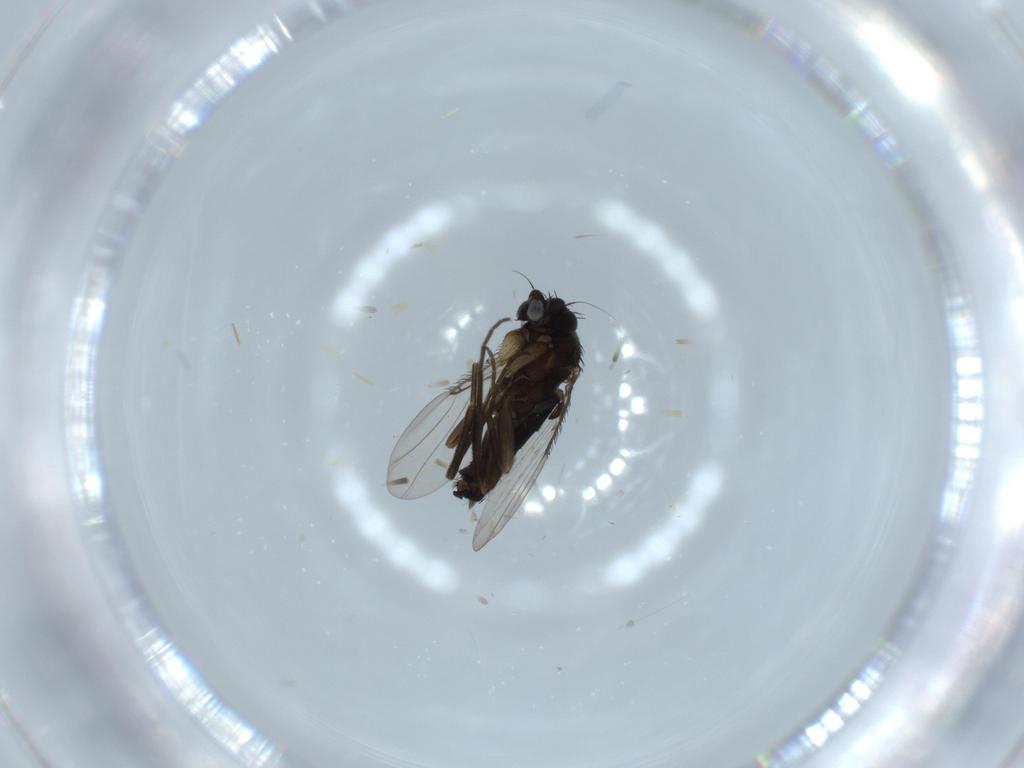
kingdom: Animalia
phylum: Arthropoda
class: Insecta
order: Diptera
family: Phoridae
